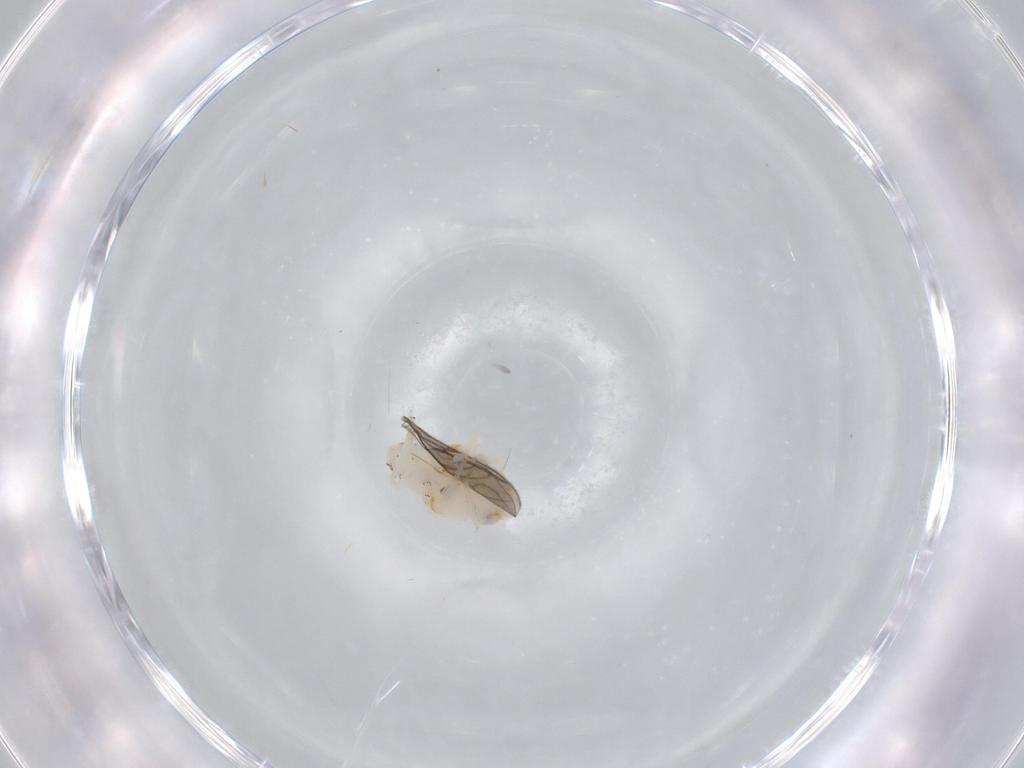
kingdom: Animalia
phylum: Arthropoda
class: Insecta
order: Hemiptera
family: Nogodinidae
